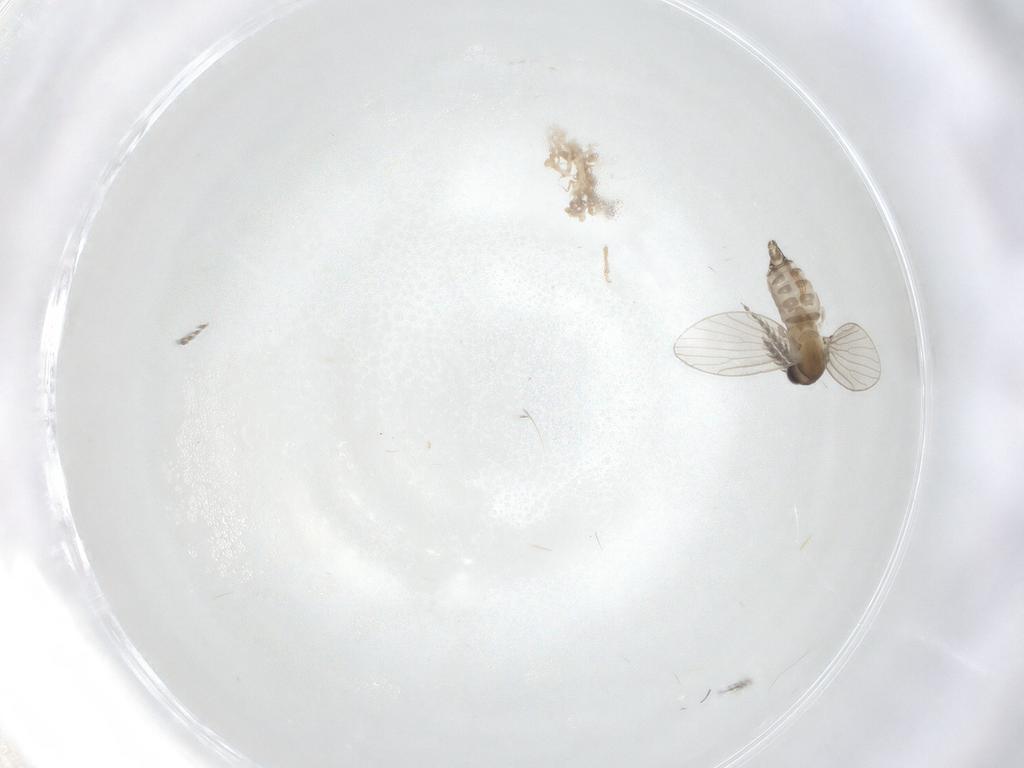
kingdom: Animalia
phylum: Arthropoda
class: Insecta
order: Diptera
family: Psychodidae
